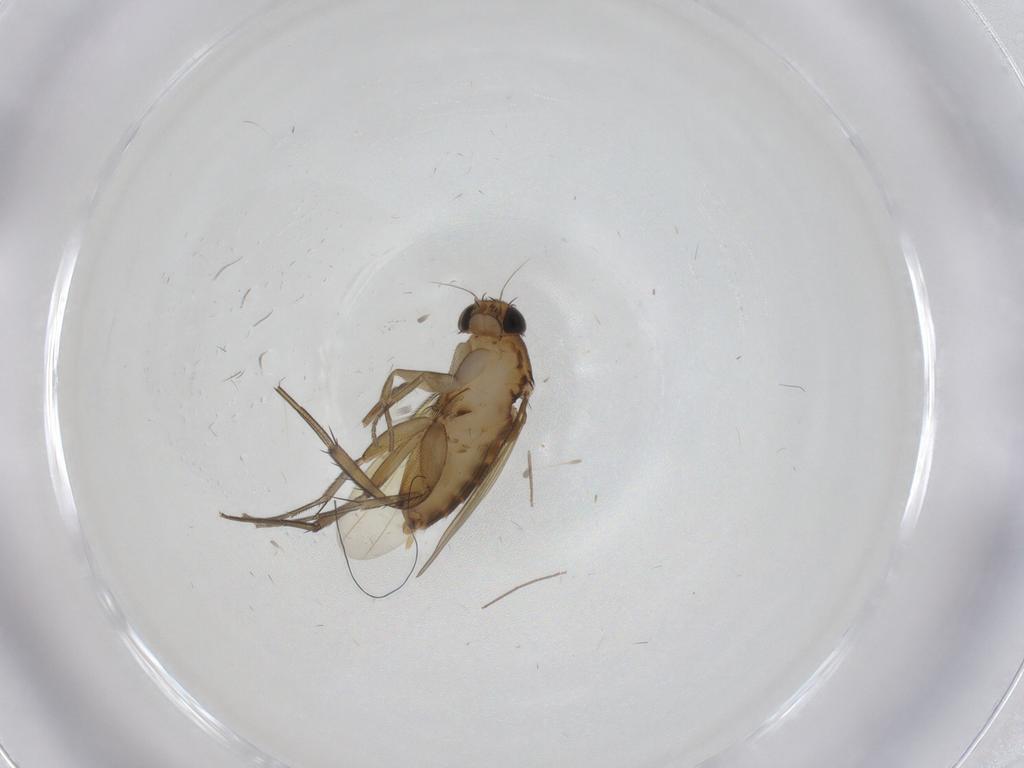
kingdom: Animalia
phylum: Arthropoda
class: Insecta
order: Diptera
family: Phoridae
